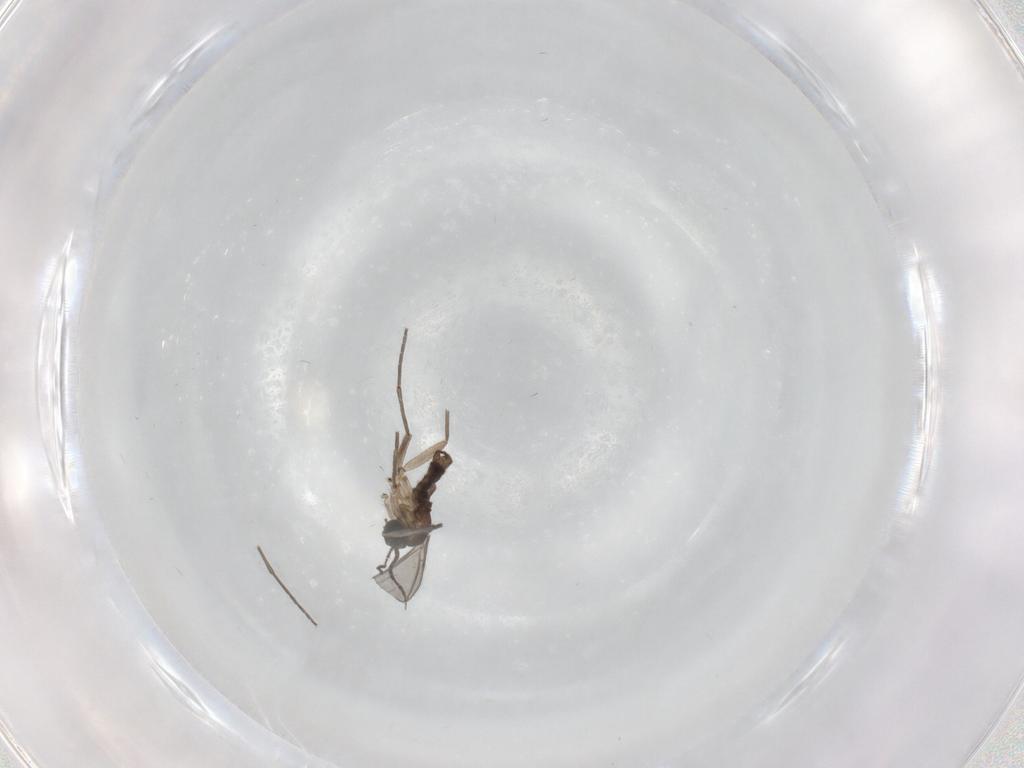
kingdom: Animalia
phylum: Arthropoda
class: Insecta
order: Diptera
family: Sciaridae
